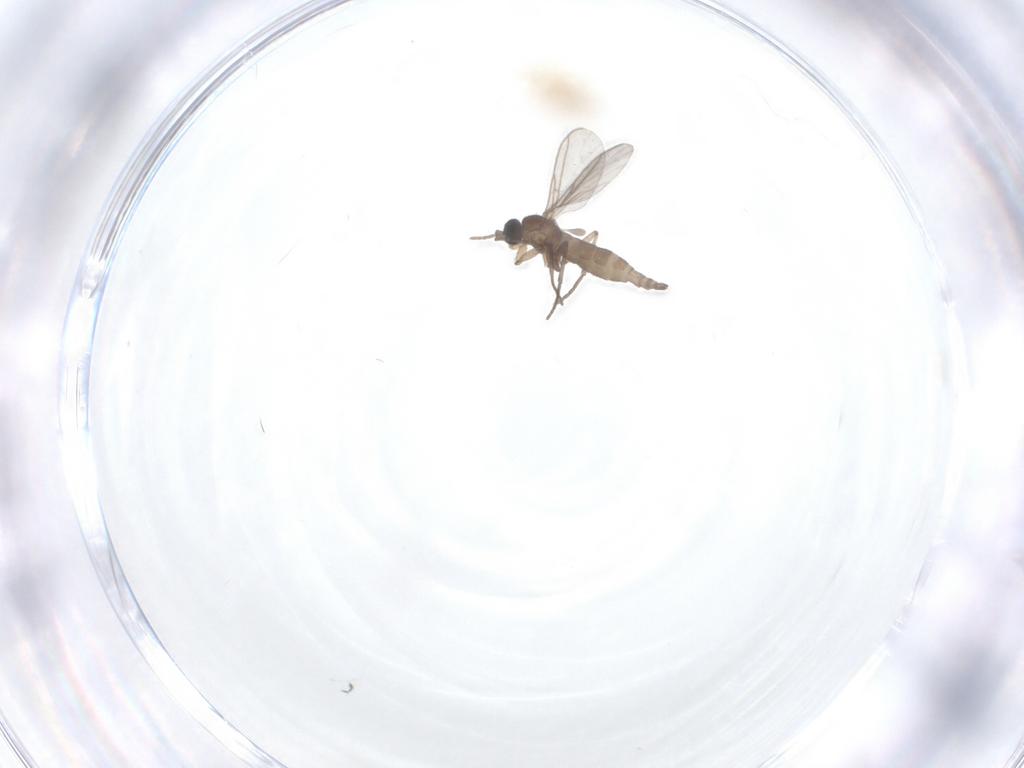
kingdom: Animalia
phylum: Arthropoda
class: Insecta
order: Diptera
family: Sciaridae
